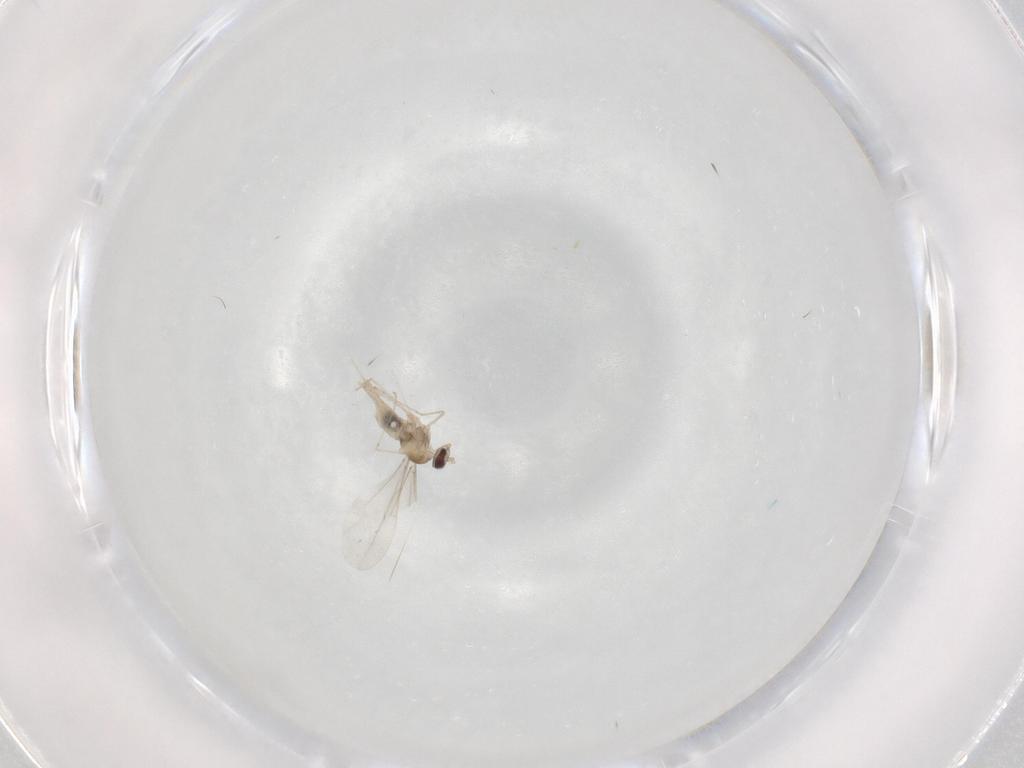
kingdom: Animalia
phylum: Arthropoda
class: Insecta
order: Diptera
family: Cecidomyiidae
